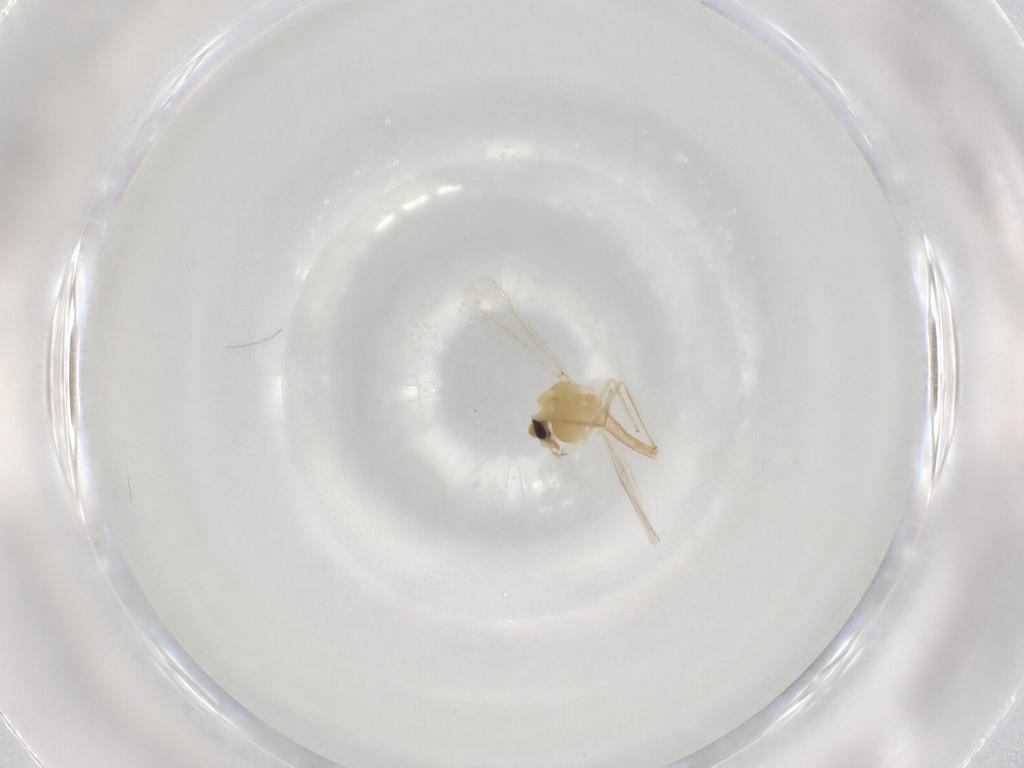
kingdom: Animalia
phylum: Arthropoda
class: Insecta
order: Diptera
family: Chironomidae
